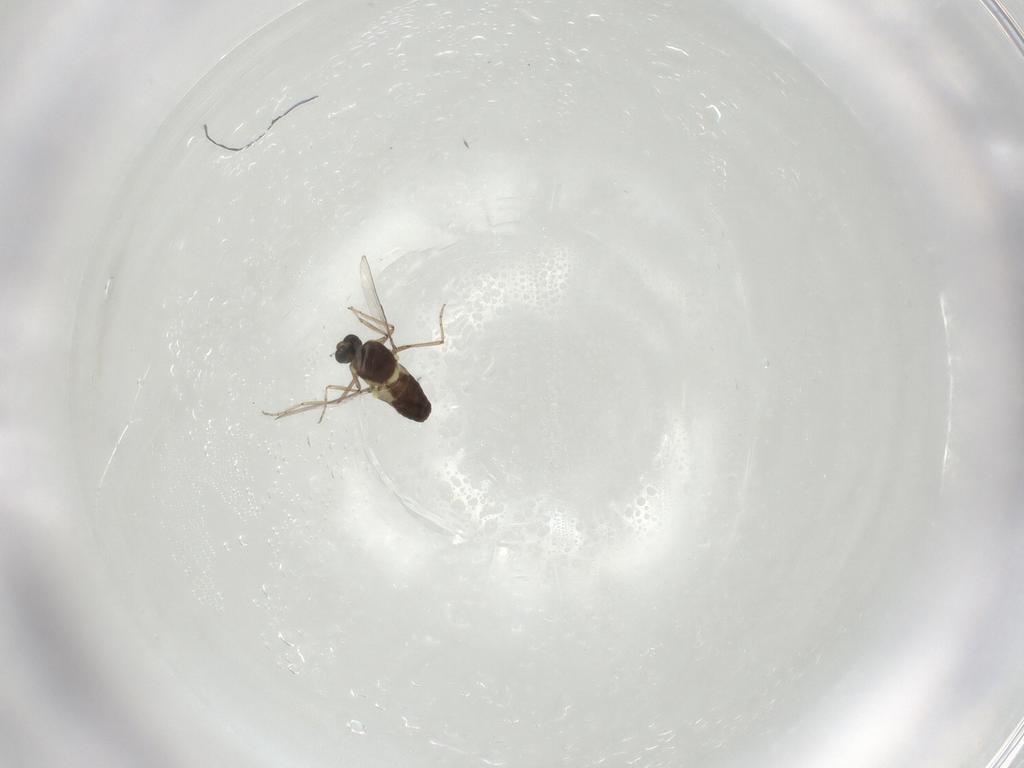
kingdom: Animalia
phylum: Arthropoda
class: Insecta
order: Diptera
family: Ceratopogonidae
